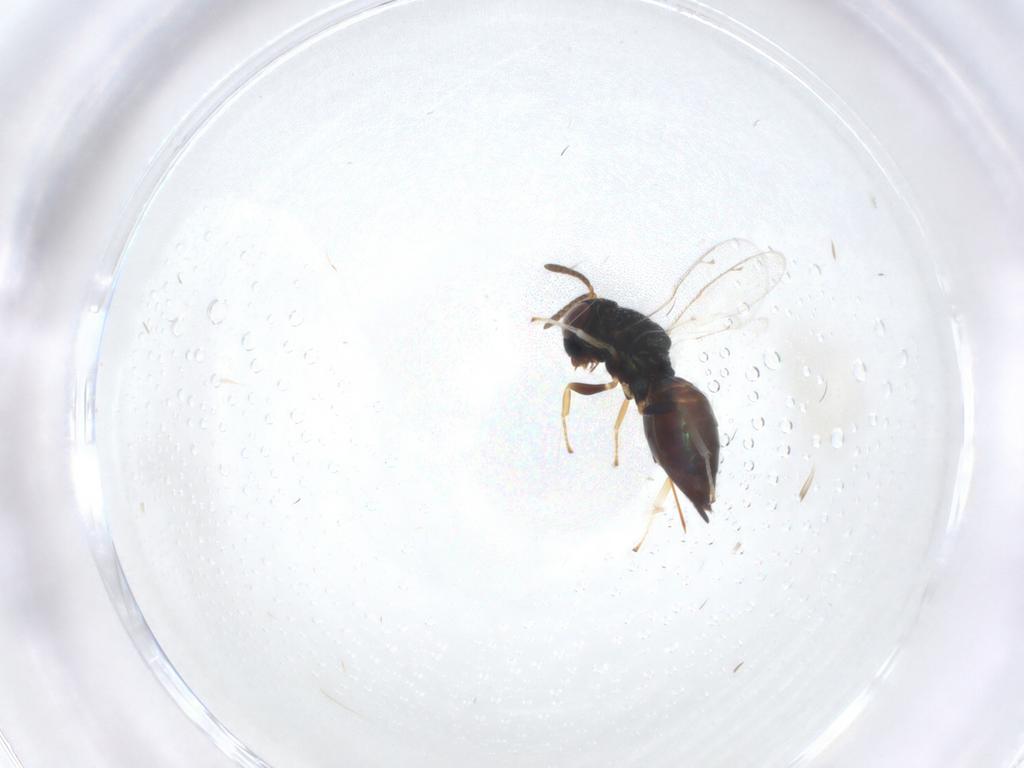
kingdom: Animalia
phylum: Arthropoda
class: Insecta
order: Hymenoptera
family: Pteromalidae
